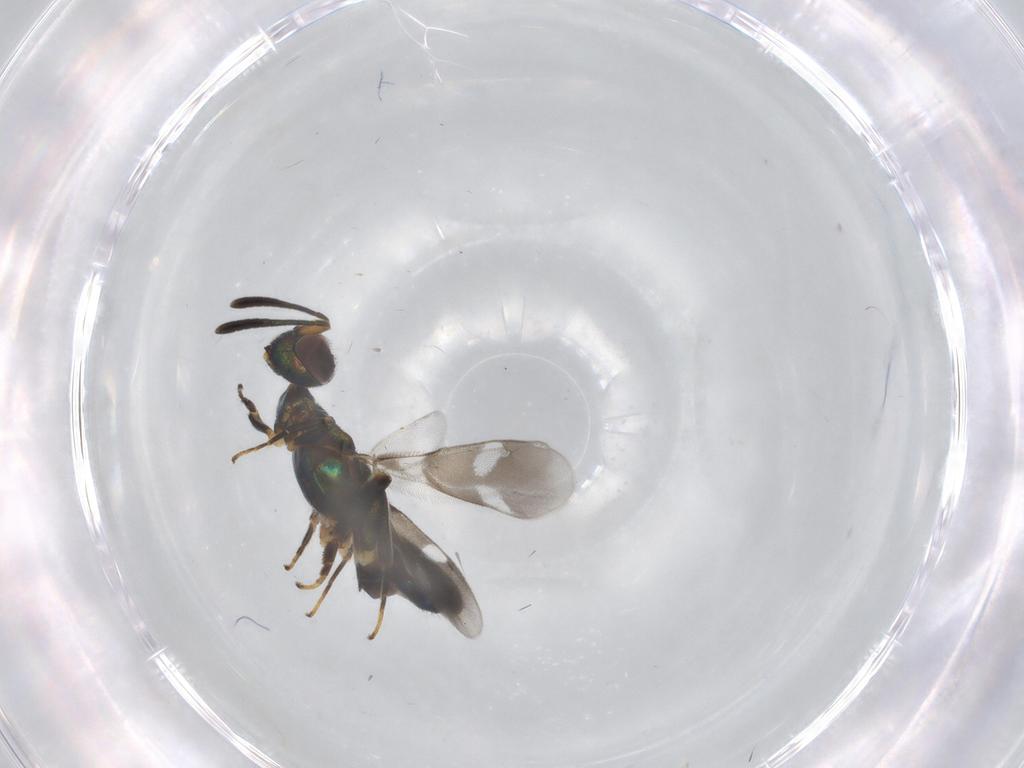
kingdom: Animalia
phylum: Arthropoda
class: Insecta
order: Hymenoptera
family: Eupelmidae
